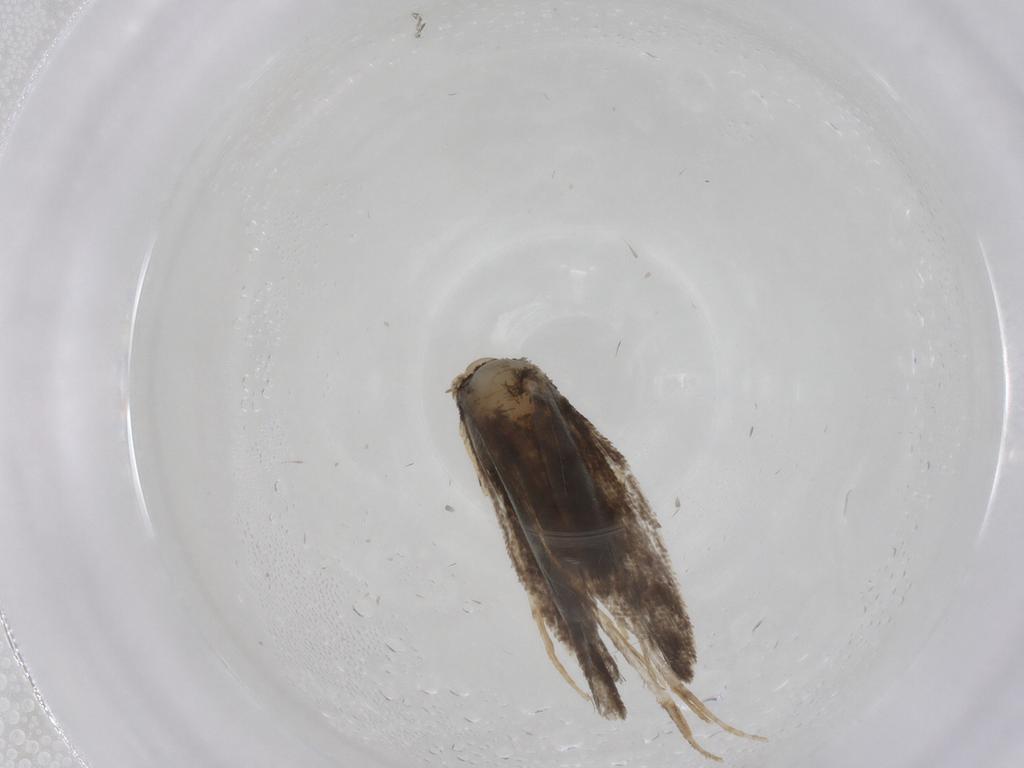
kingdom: Animalia
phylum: Arthropoda
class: Insecta
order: Lepidoptera
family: Psychidae
